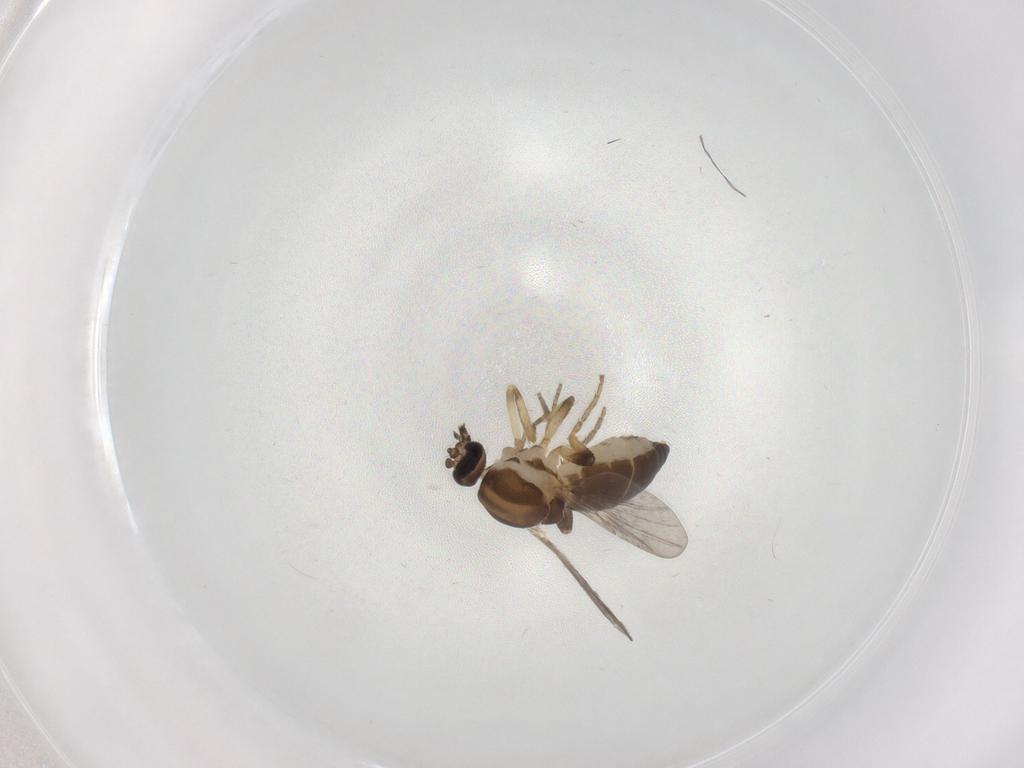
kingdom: Animalia
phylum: Arthropoda
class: Insecta
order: Diptera
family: Ceratopogonidae
